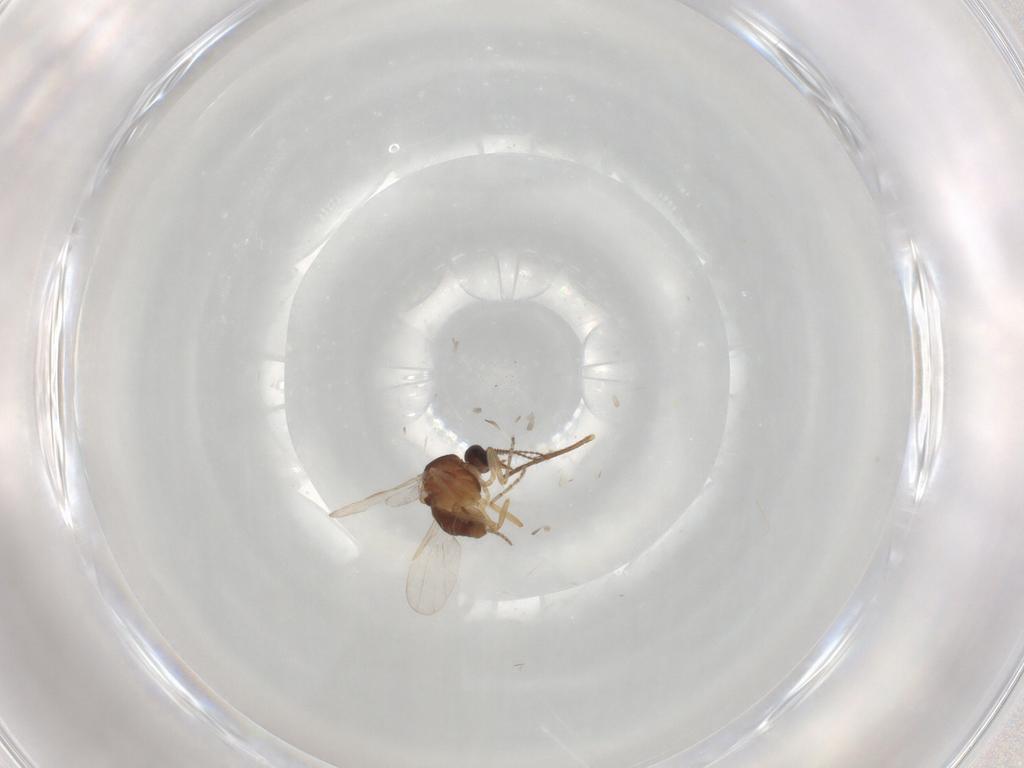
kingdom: Animalia
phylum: Arthropoda
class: Insecta
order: Diptera
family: Ceratopogonidae
